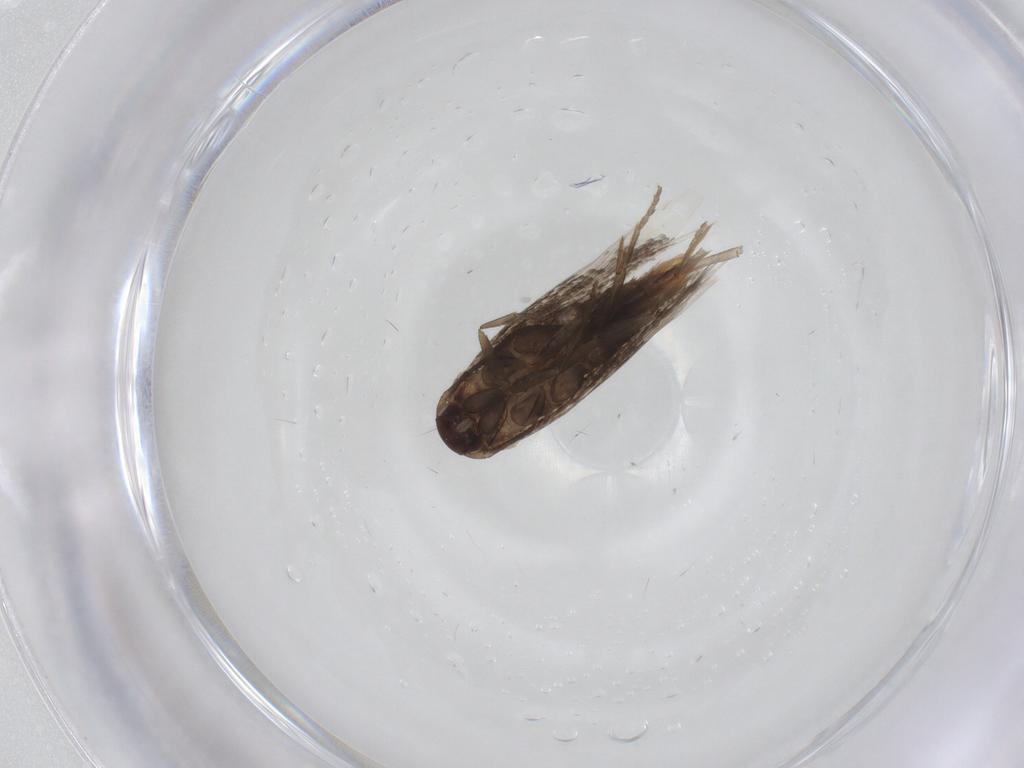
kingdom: Animalia
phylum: Arthropoda
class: Insecta
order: Lepidoptera
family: Elachistidae
